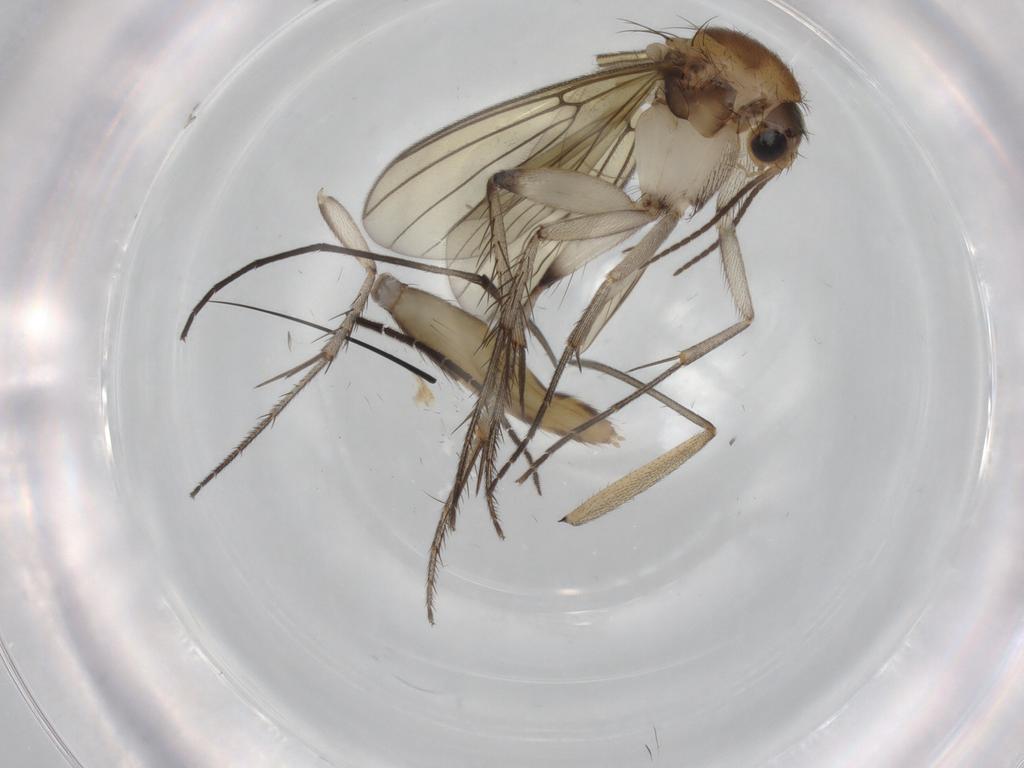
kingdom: Animalia
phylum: Arthropoda
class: Insecta
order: Diptera
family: Mycetophilidae
